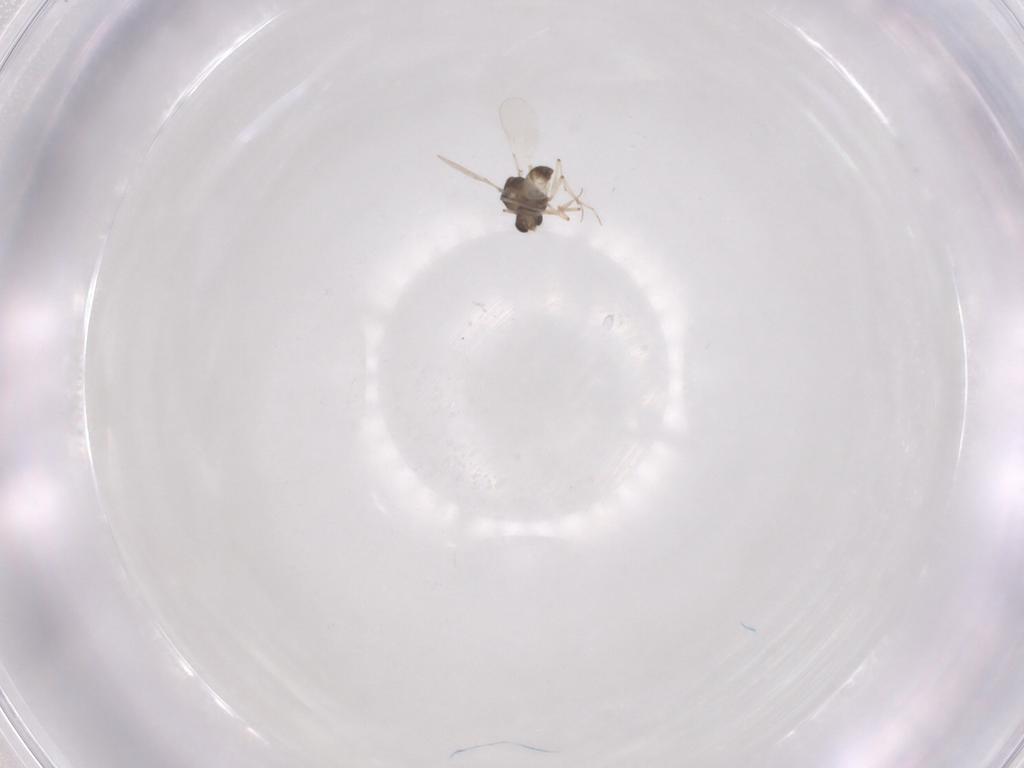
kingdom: Animalia
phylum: Arthropoda
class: Insecta
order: Diptera
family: Chironomidae
